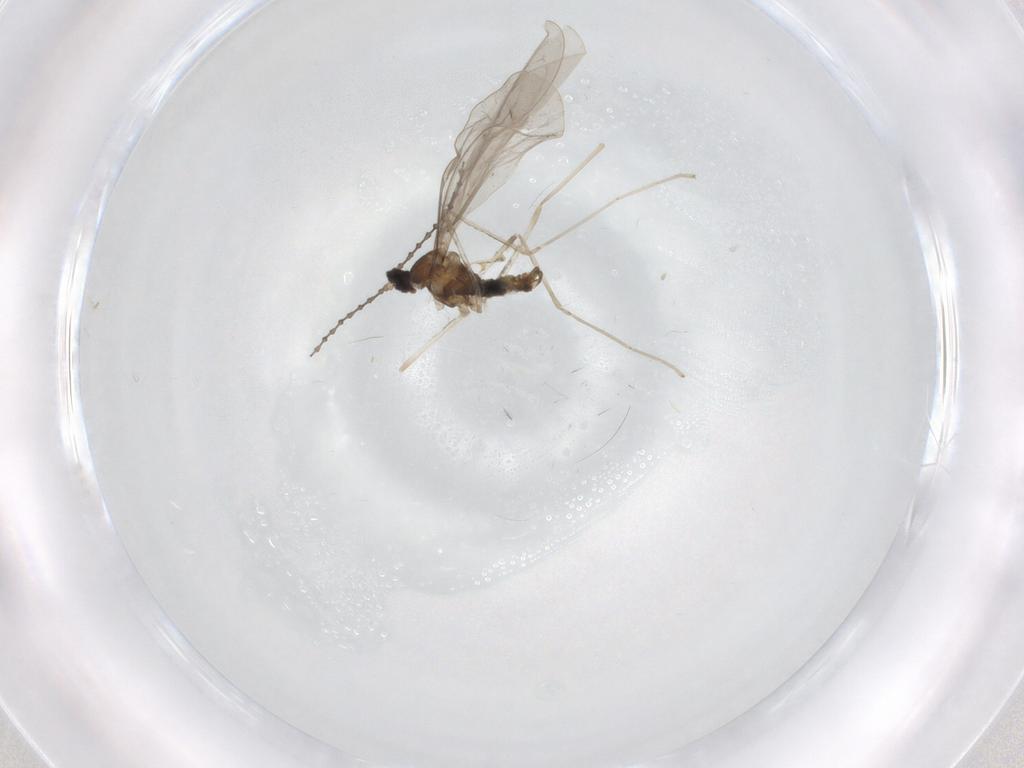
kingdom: Animalia
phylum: Arthropoda
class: Insecta
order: Diptera
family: Cecidomyiidae
